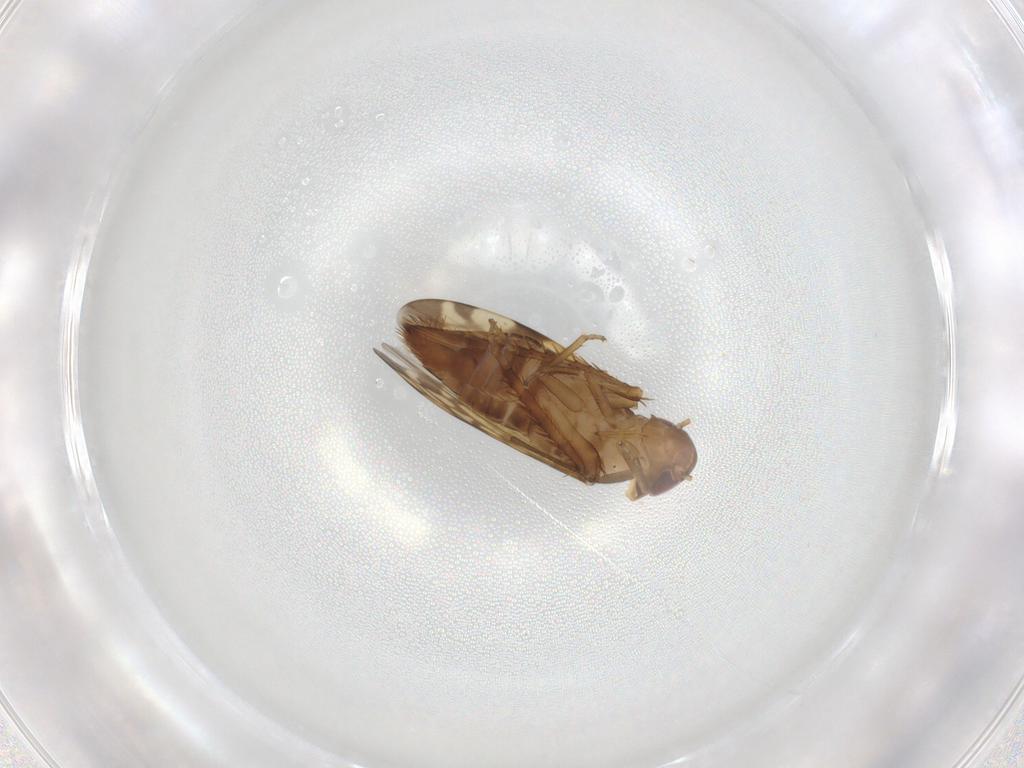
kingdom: Animalia
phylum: Arthropoda
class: Insecta
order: Hemiptera
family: Cicadellidae
